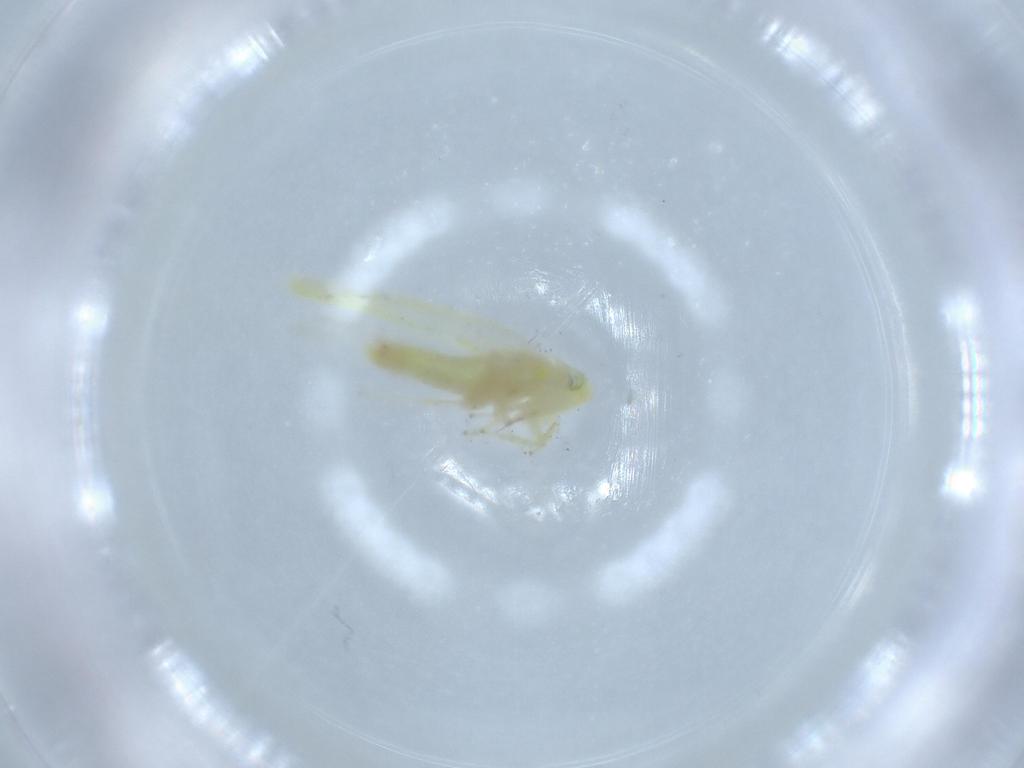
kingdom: Animalia
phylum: Arthropoda
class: Insecta
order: Hemiptera
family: Cicadellidae
